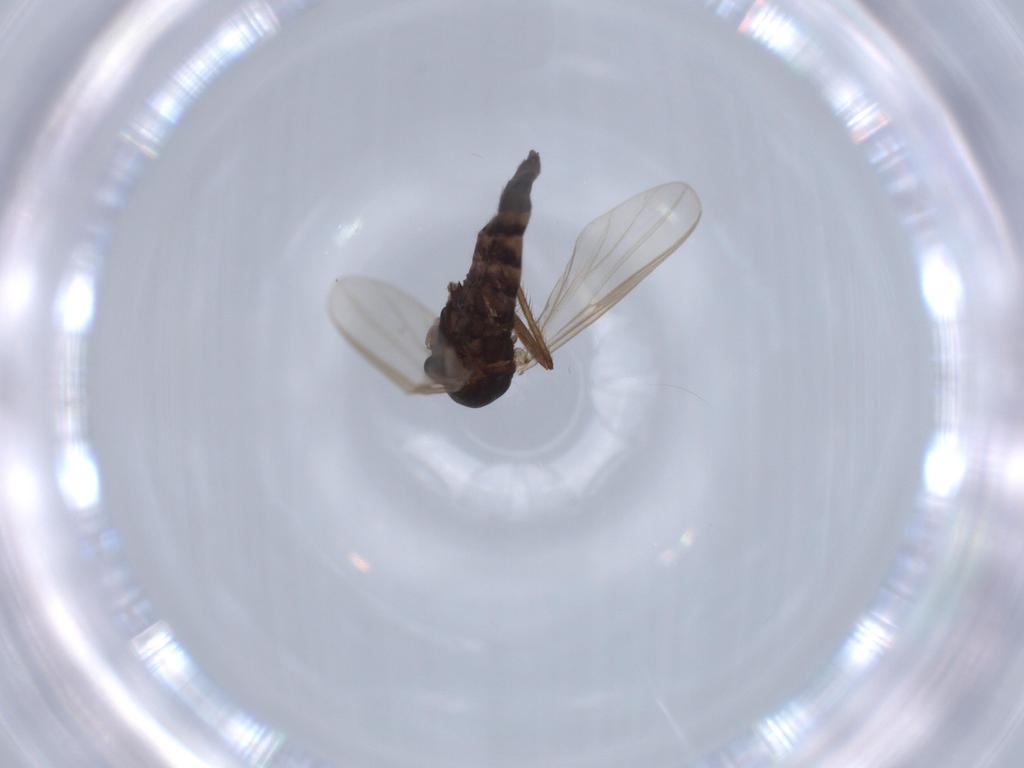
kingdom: Animalia
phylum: Arthropoda
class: Insecta
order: Diptera
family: Psychodidae
